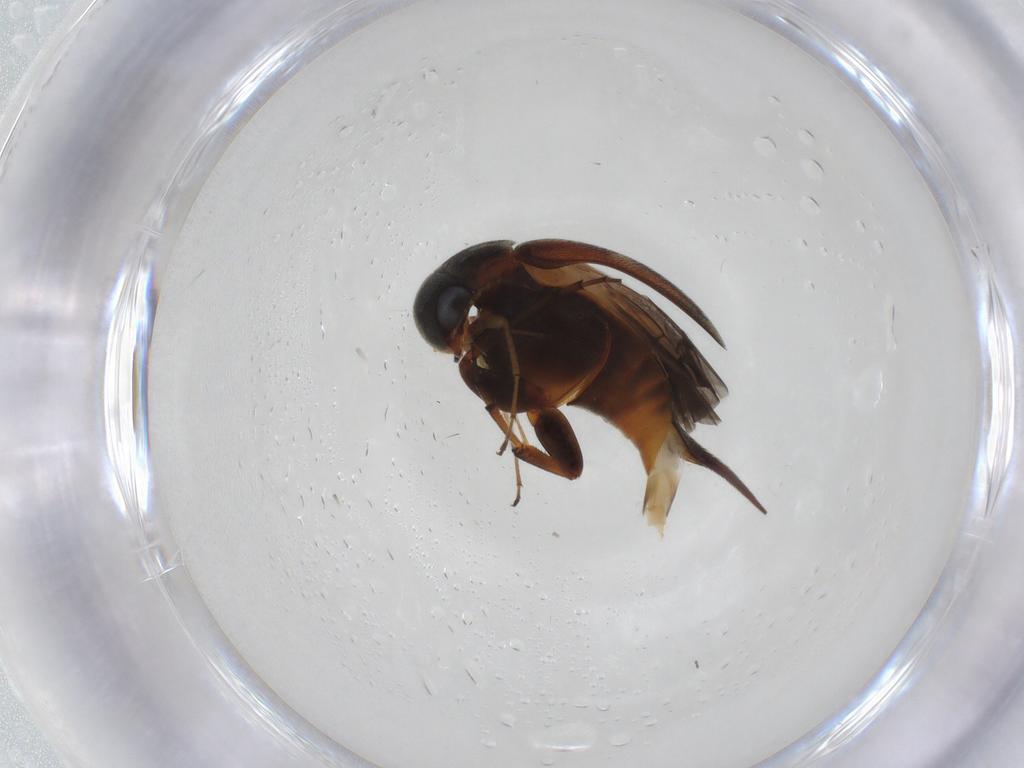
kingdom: Animalia
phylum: Arthropoda
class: Insecta
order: Coleoptera
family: Mordellidae
